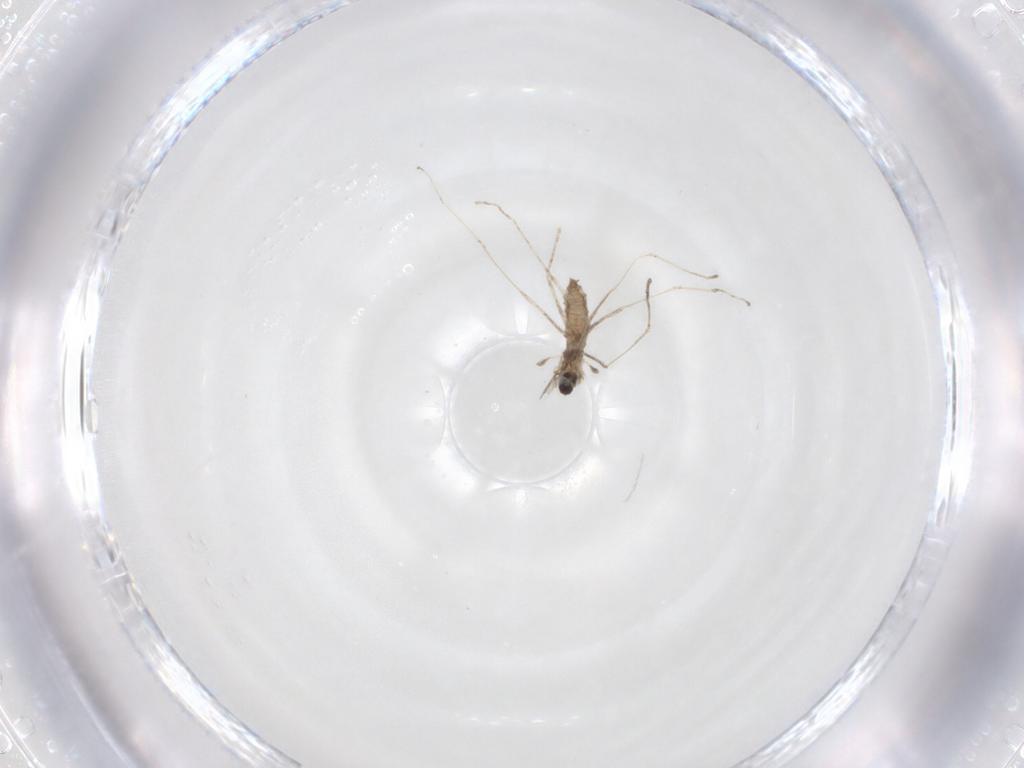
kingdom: Animalia
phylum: Arthropoda
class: Insecta
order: Diptera
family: Cecidomyiidae
